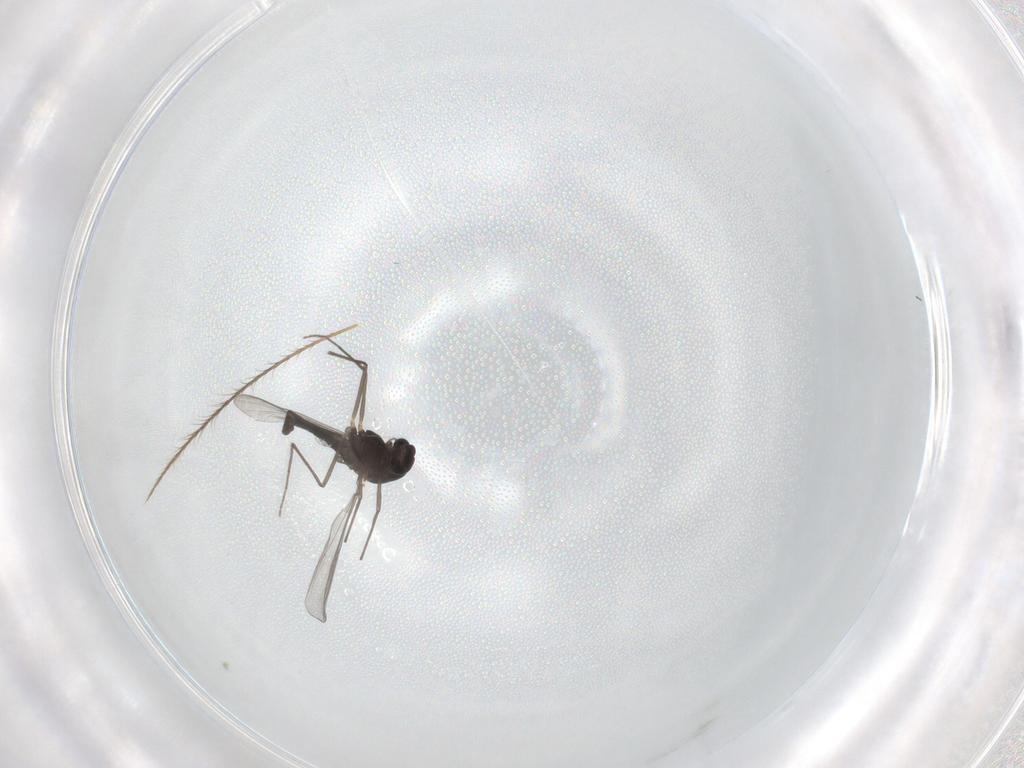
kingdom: Animalia
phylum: Arthropoda
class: Insecta
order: Diptera
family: Chironomidae
